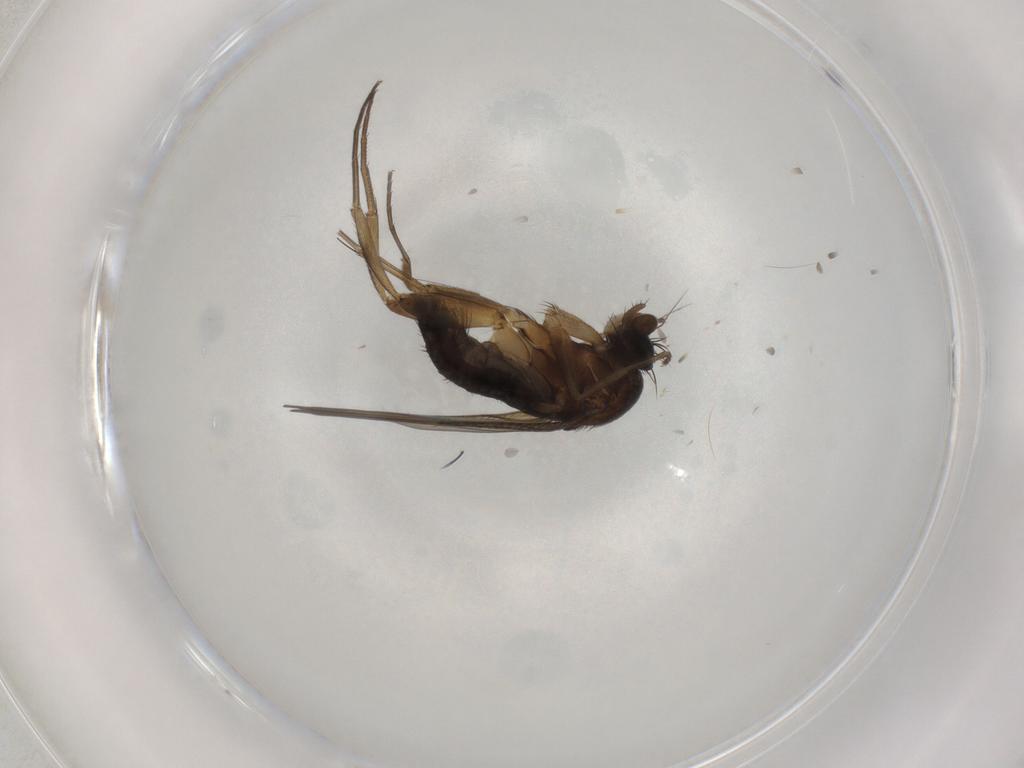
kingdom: Animalia
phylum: Arthropoda
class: Insecta
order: Diptera
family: Phoridae
